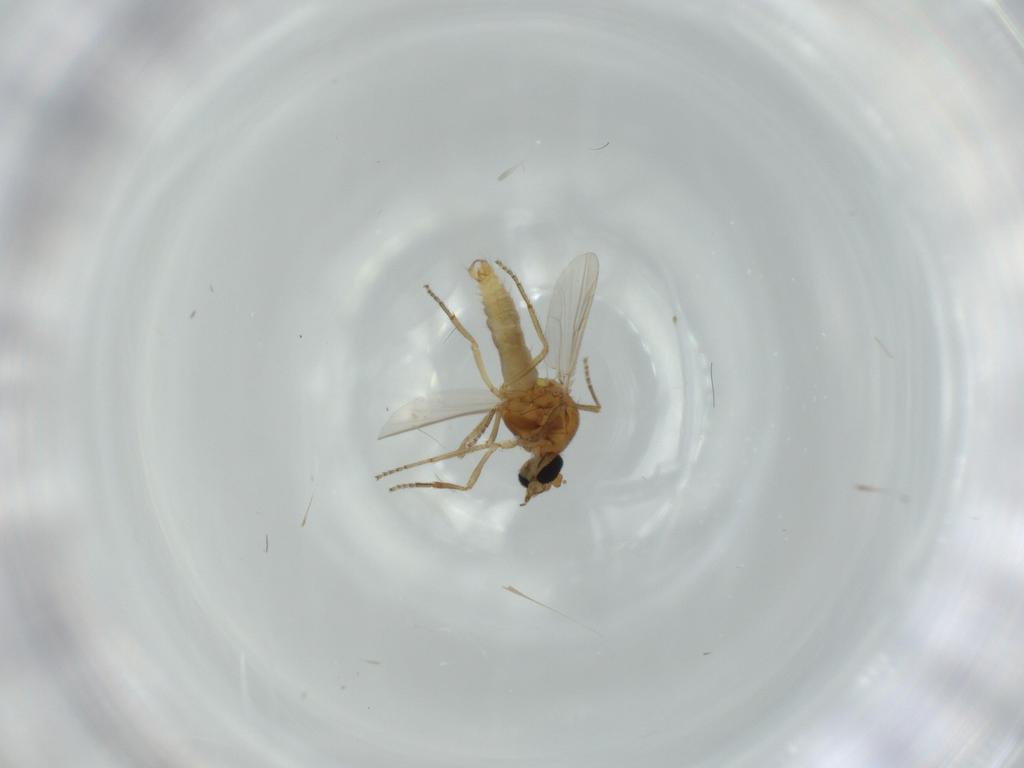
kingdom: Animalia
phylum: Arthropoda
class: Insecta
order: Diptera
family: Ceratopogonidae
